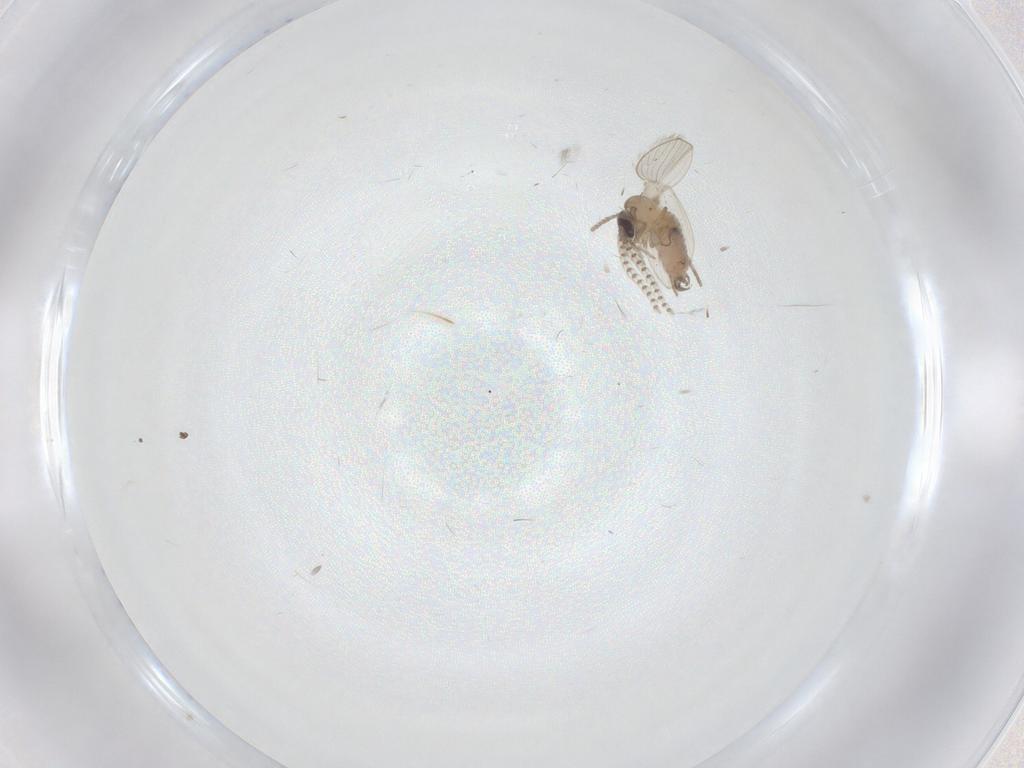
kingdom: Animalia
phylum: Arthropoda
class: Insecta
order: Diptera
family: Psychodidae
